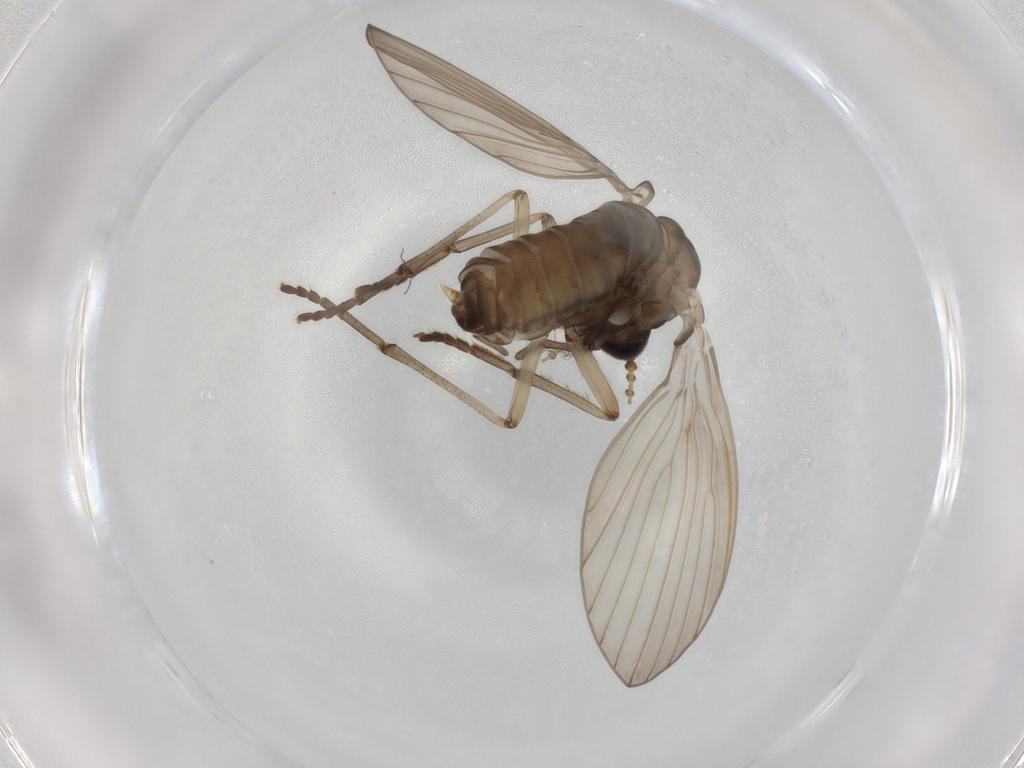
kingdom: Animalia
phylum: Arthropoda
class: Insecta
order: Diptera
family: Psychodidae
